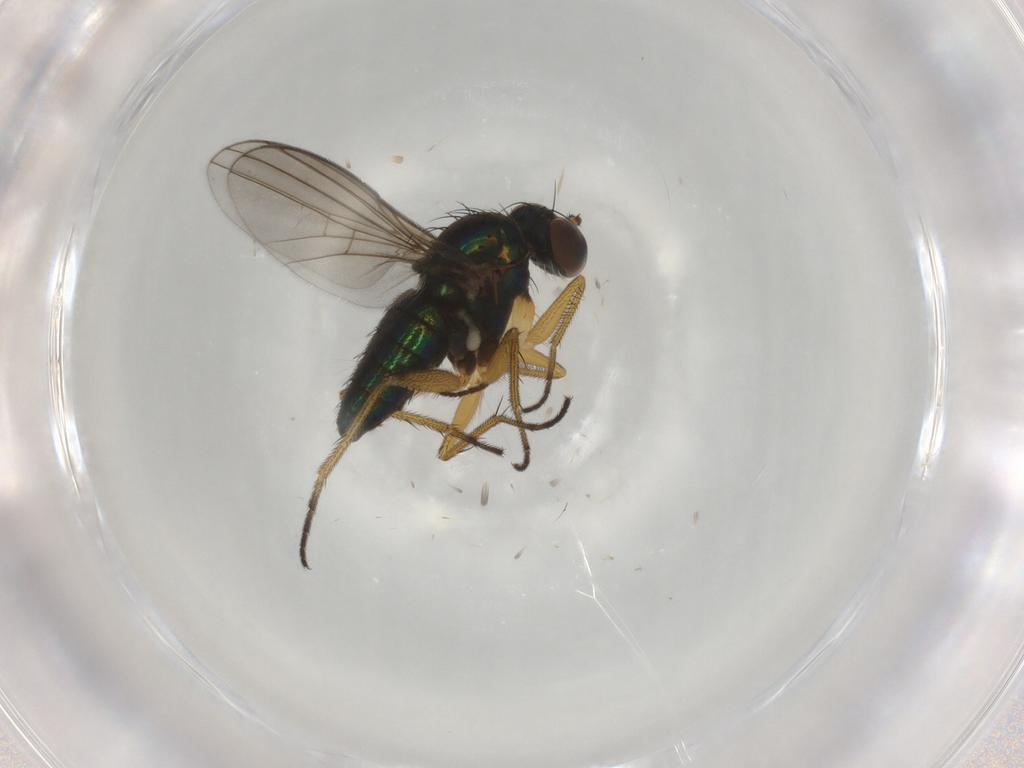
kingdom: Animalia
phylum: Arthropoda
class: Insecta
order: Diptera
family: Dolichopodidae
